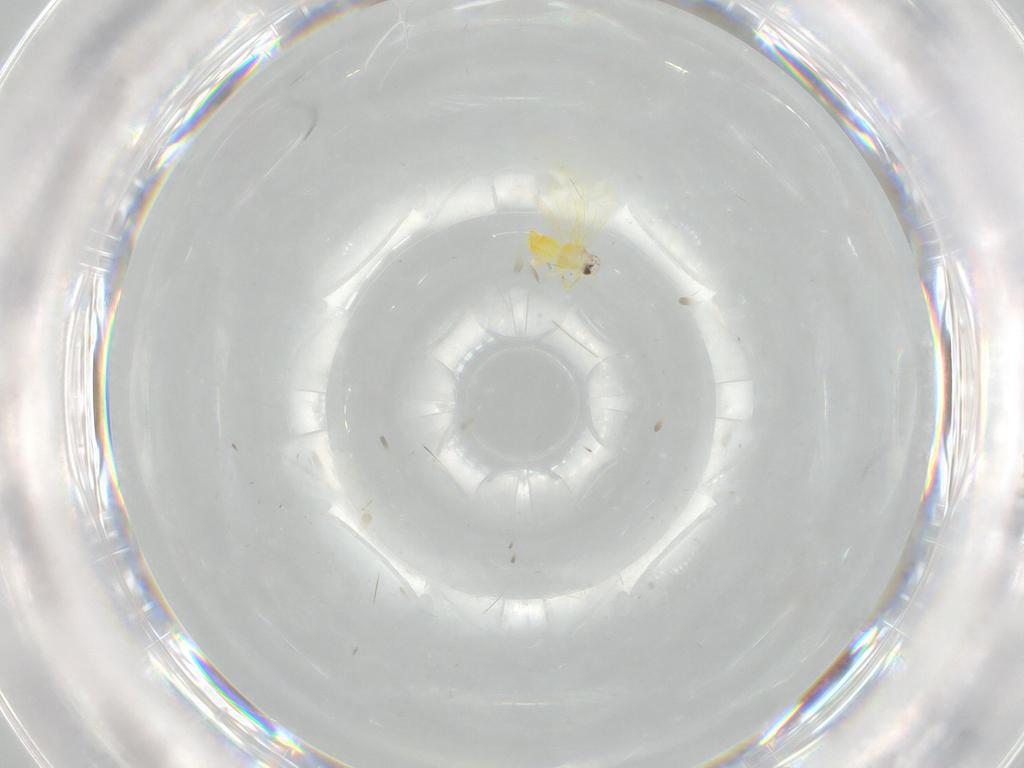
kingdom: Animalia
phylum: Arthropoda
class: Insecta
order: Hemiptera
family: Aleyrodidae
